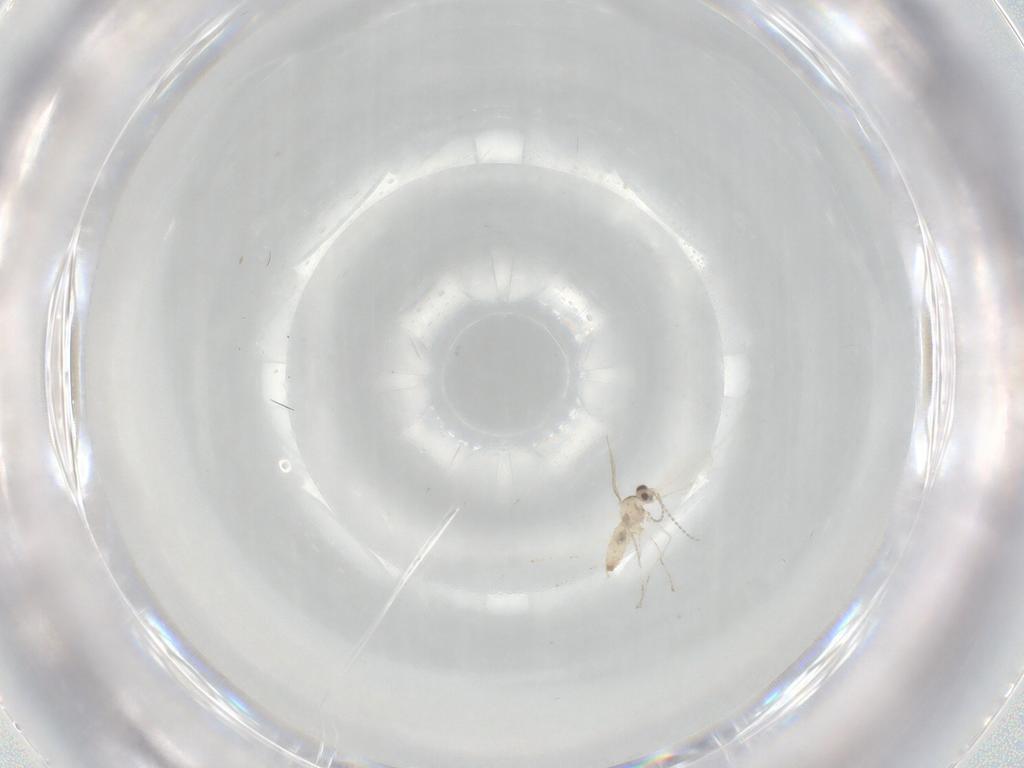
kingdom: Animalia
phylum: Arthropoda
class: Insecta
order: Diptera
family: Cecidomyiidae
